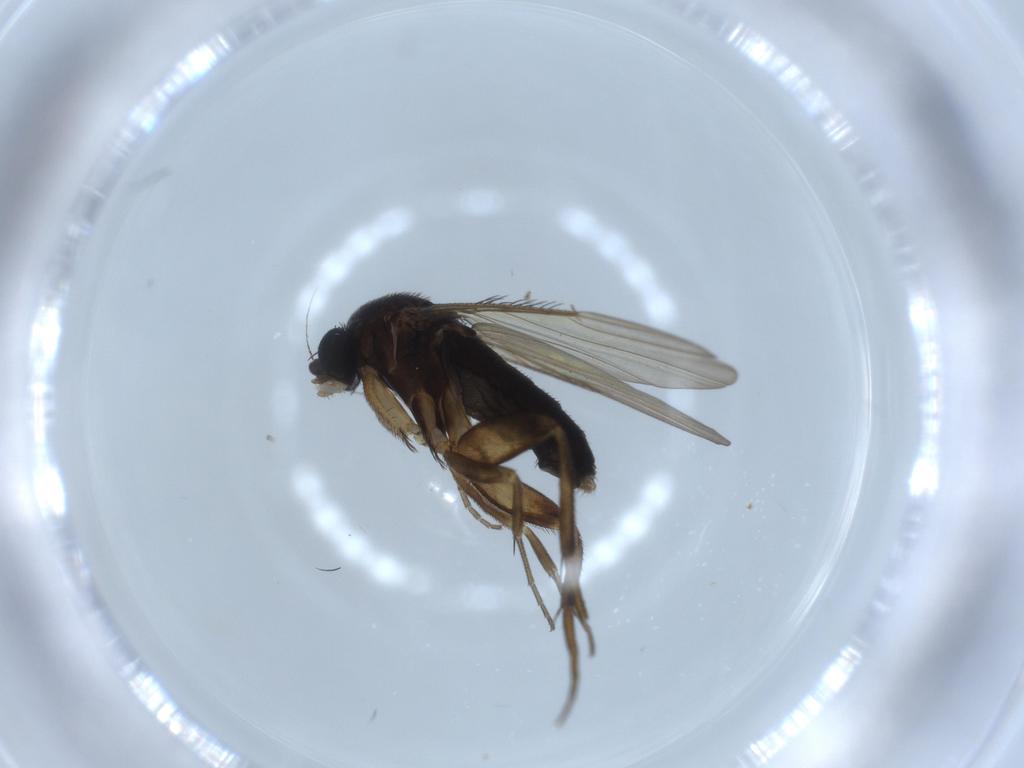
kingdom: Animalia
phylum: Arthropoda
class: Insecta
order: Diptera
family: Phoridae
